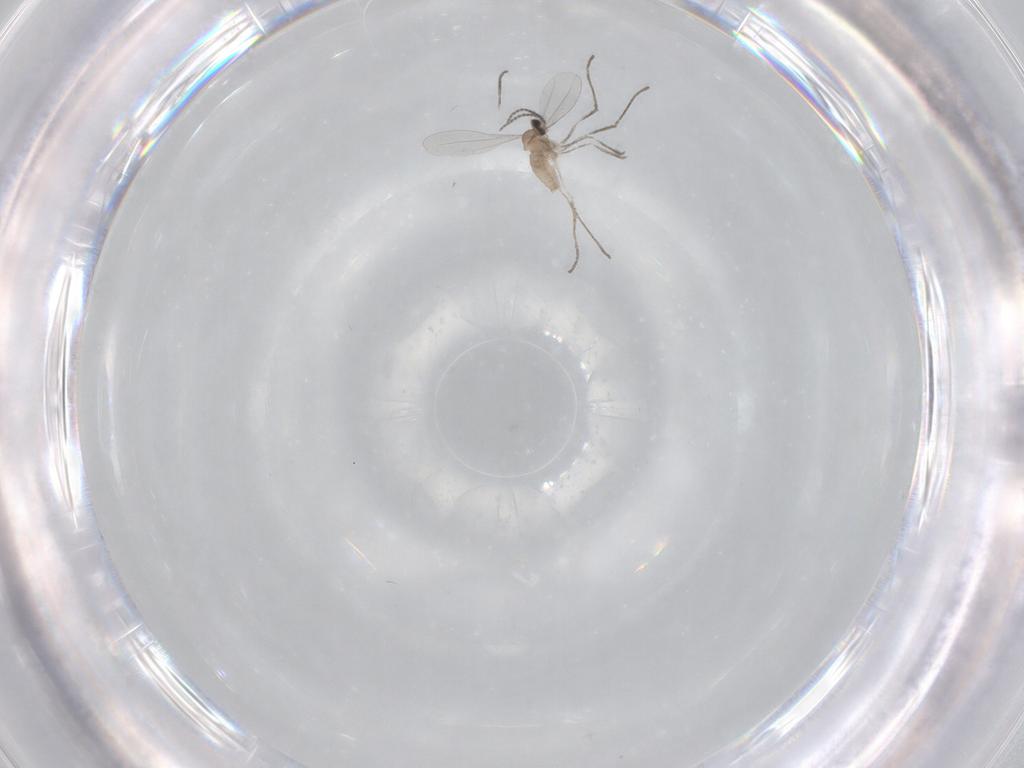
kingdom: Animalia
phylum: Arthropoda
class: Insecta
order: Diptera
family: Cecidomyiidae
